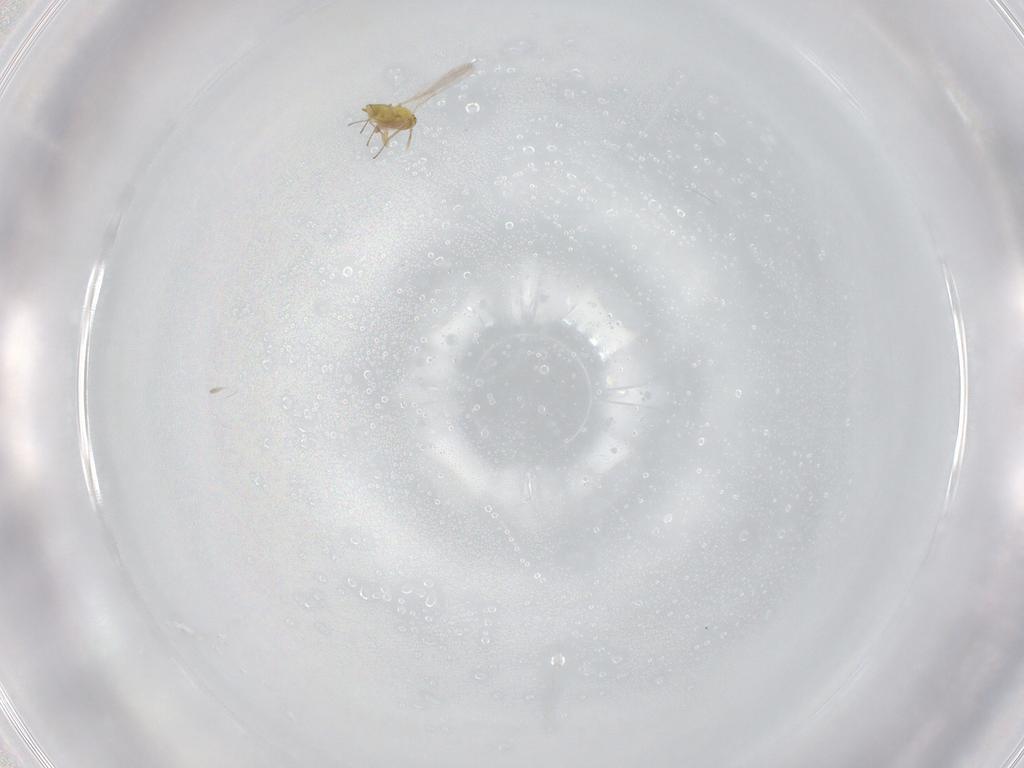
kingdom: Animalia
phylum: Arthropoda
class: Insecta
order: Hymenoptera
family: Aphelinidae
